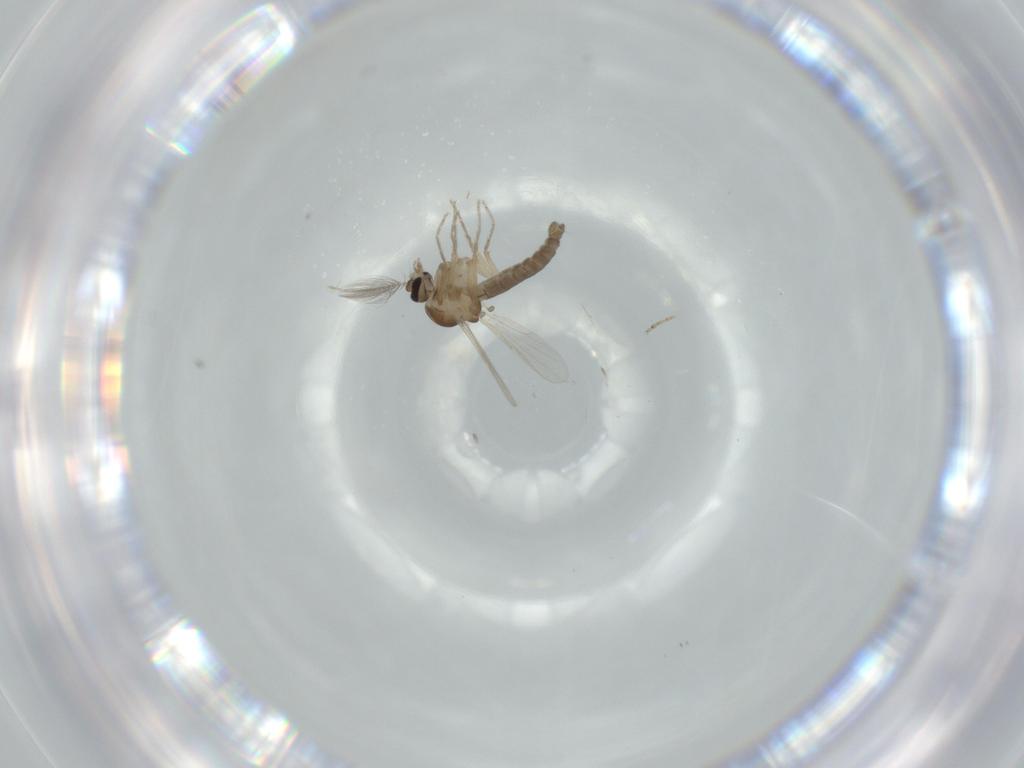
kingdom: Animalia
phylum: Arthropoda
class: Insecta
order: Diptera
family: Ceratopogonidae
